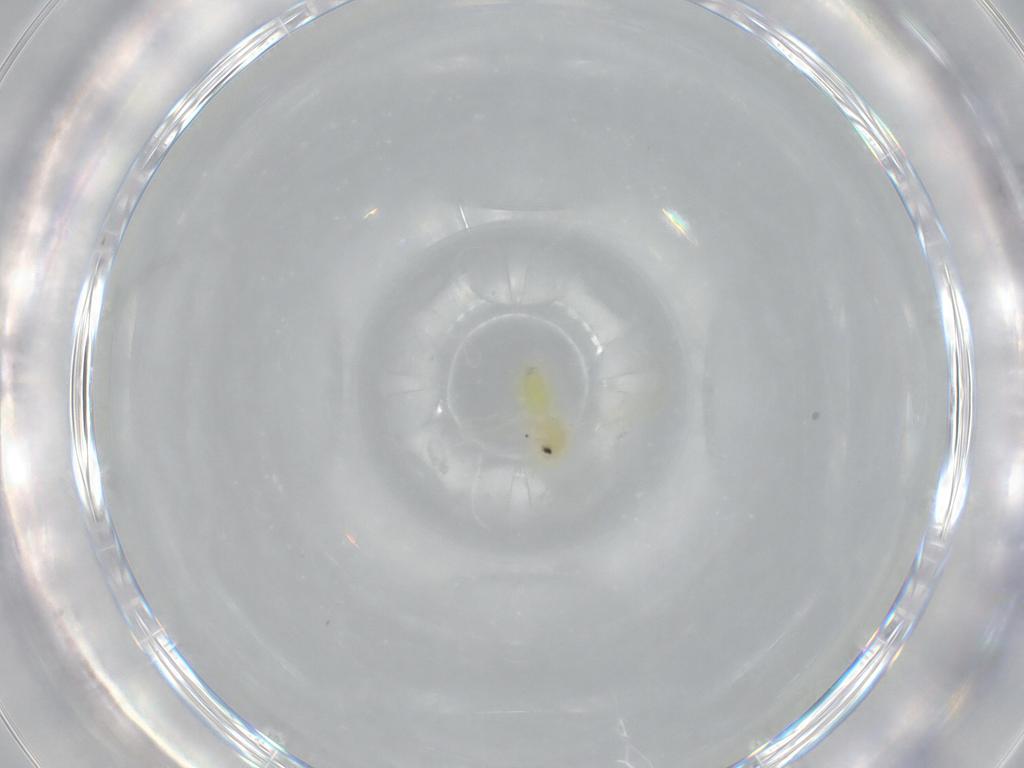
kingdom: Animalia
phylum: Arthropoda
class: Insecta
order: Hemiptera
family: Aleyrodidae
